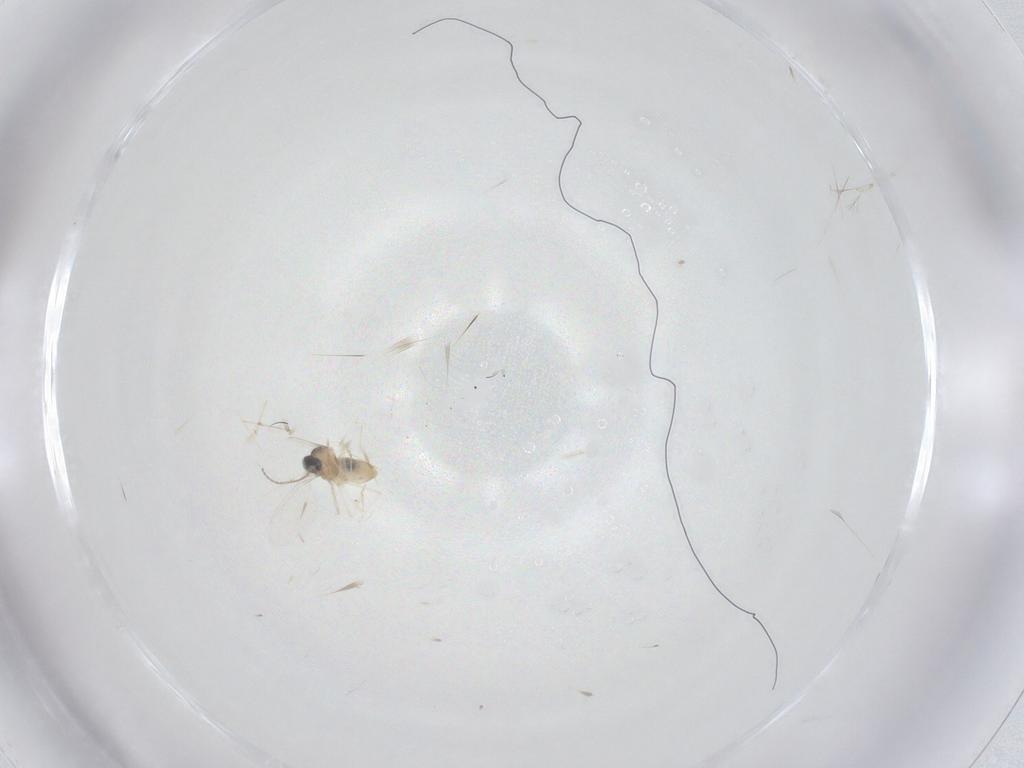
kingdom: Animalia
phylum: Arthropoda
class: Insecta
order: Diptera
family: Cecidomyiidae
